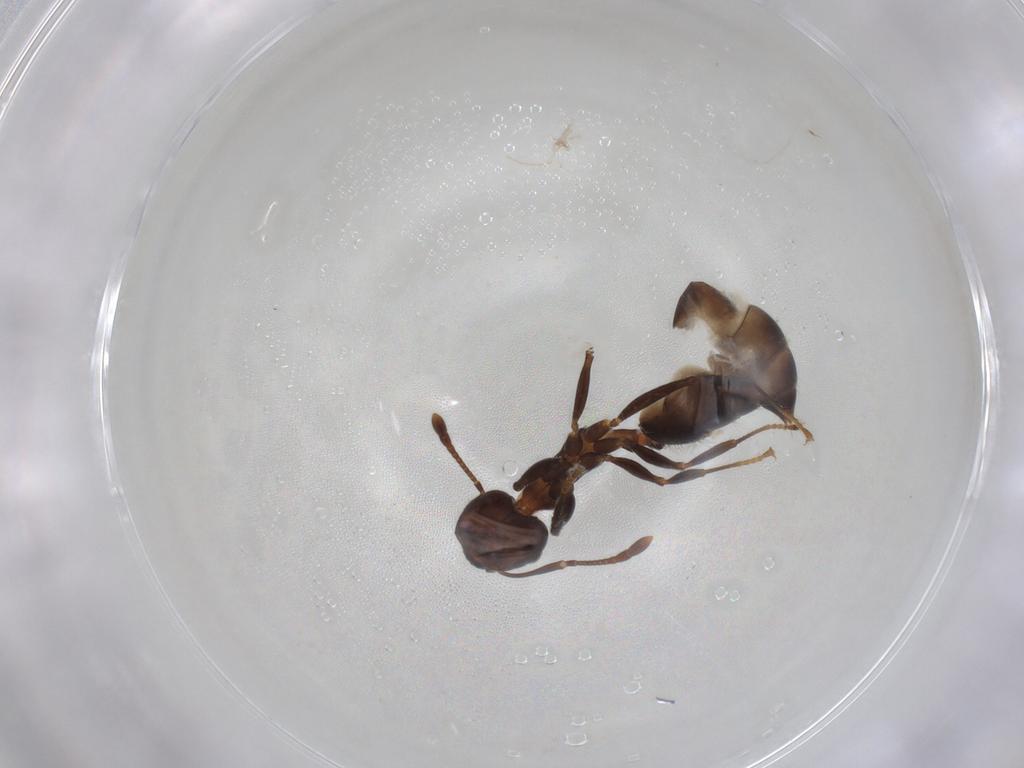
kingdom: Animalia
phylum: Arthropoda
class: Insecta
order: Hymenoptera
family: Formicidae
